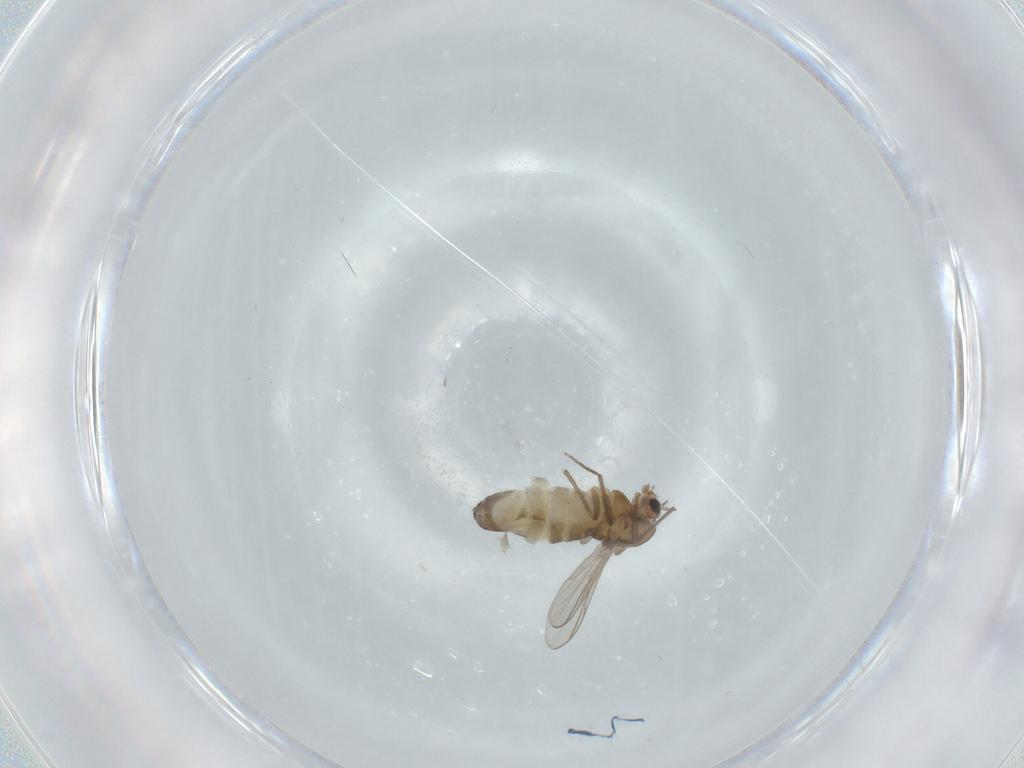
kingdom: Animalia
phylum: Arthropoda
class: Insecta
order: Diptera
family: Chironomidae
